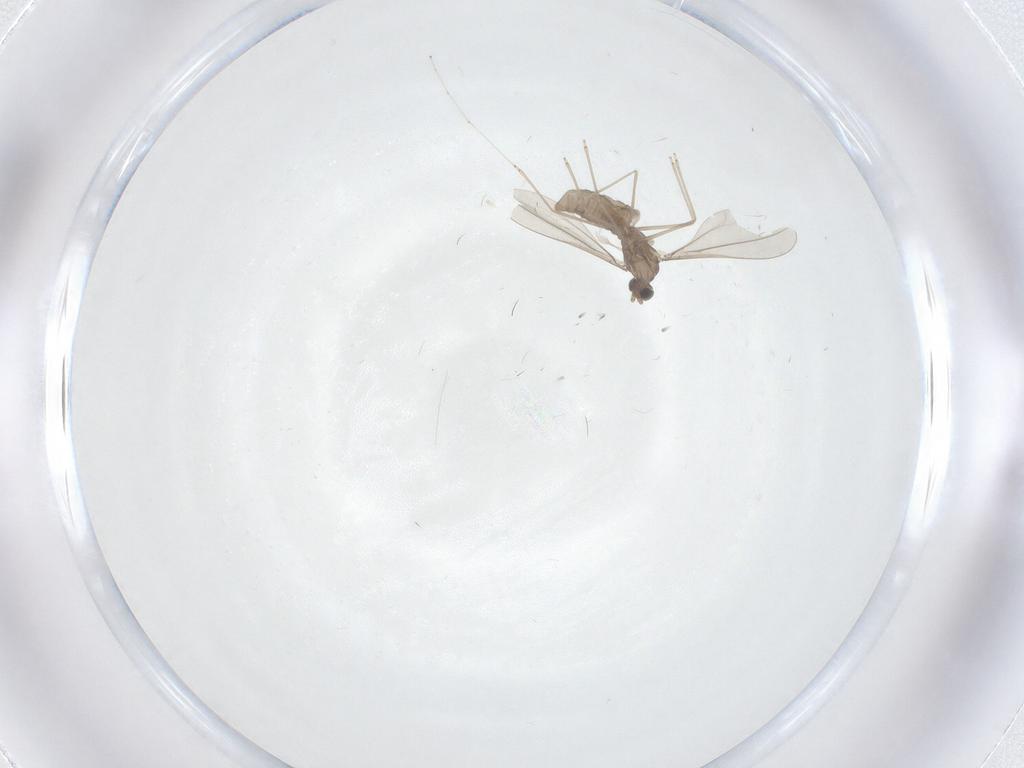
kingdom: Animalia
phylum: Arthropoda
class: Insecta
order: Diptera
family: Cecidomyiidae
